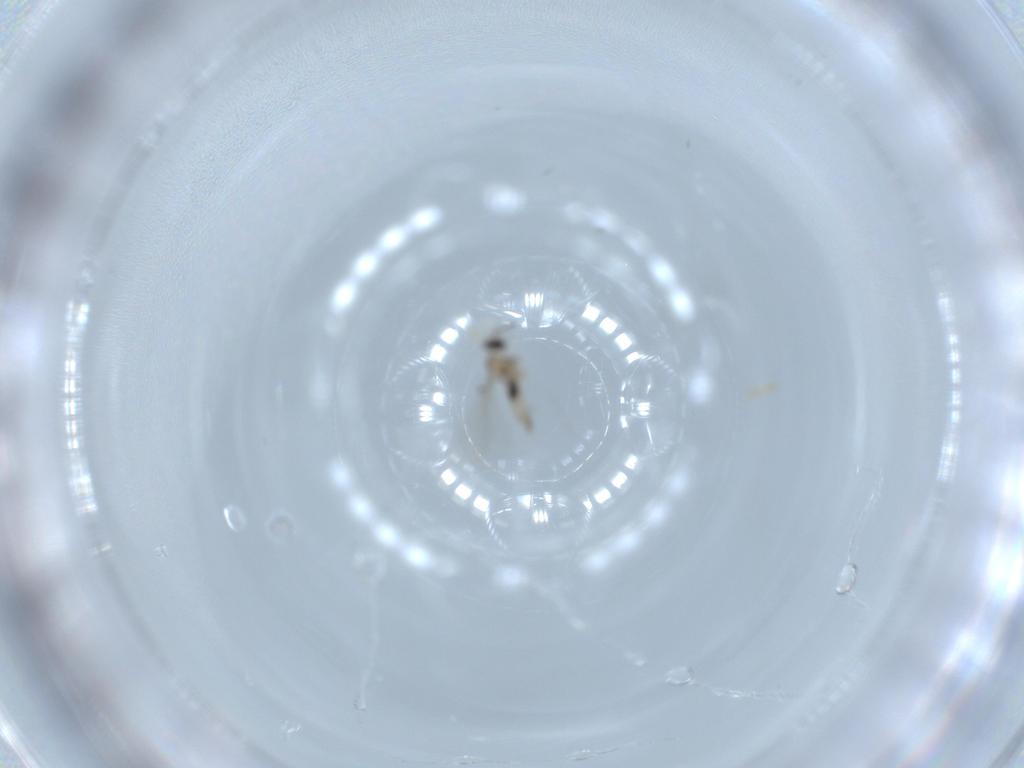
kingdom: Animalia
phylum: Arthropoda
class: Insecta
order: Diptera
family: Cecidomyiidae
